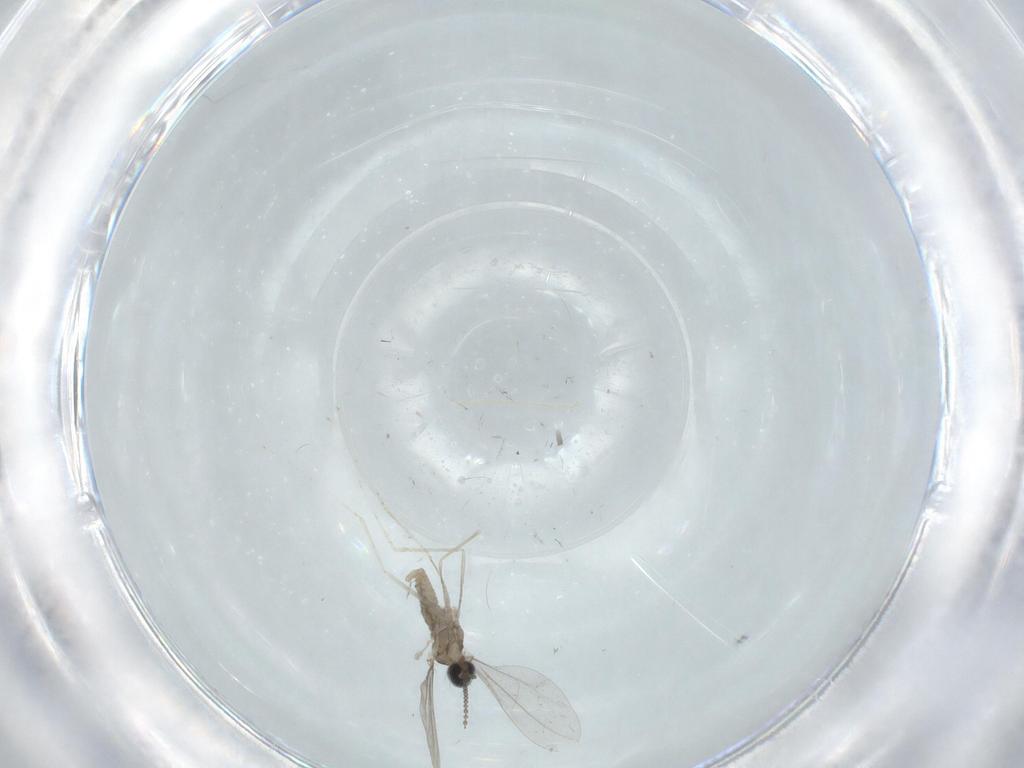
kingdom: Animalia
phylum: Arthropoda
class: Insecta
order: Diptera
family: Cecidomyiidae
